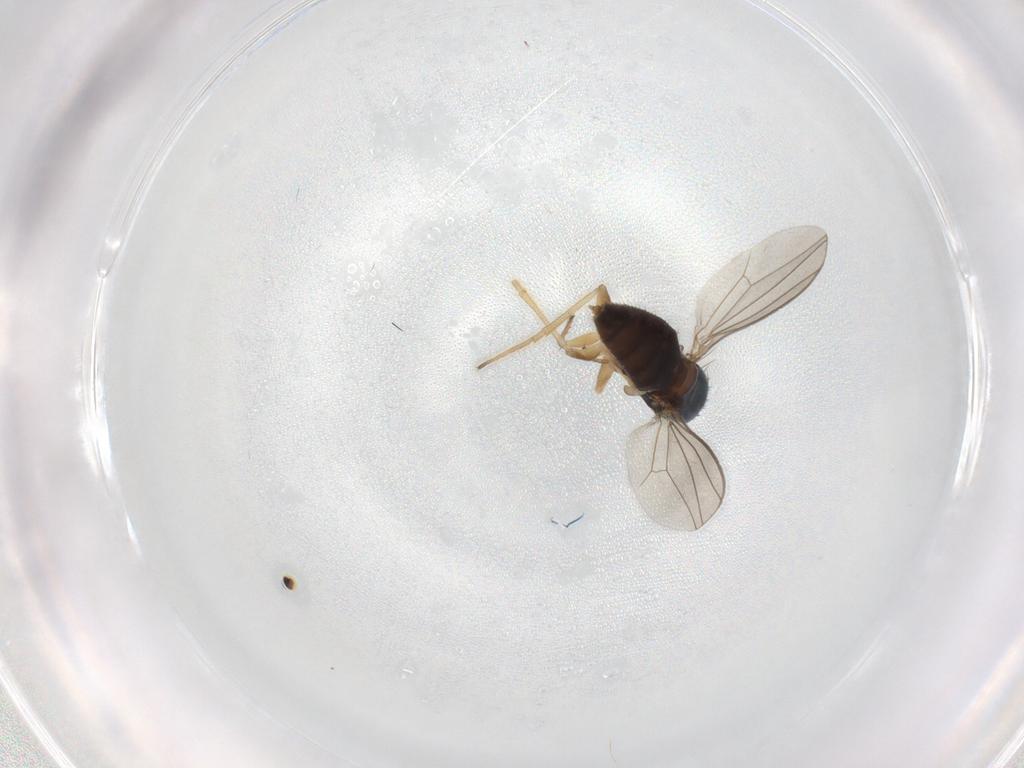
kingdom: Animalia
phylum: Arthropoda
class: Insecta
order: Diptera
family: Dolichopodidae
